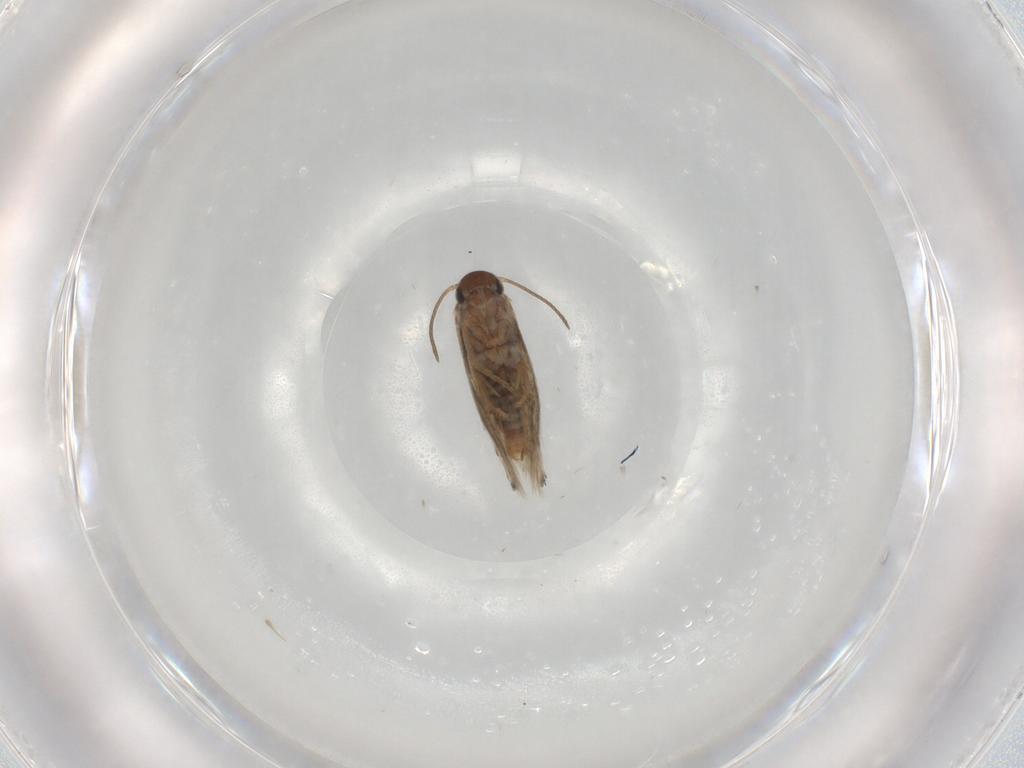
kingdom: Animalia
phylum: Arthropoda
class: Insecta
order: Lepidoptera
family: Heliozelidae
